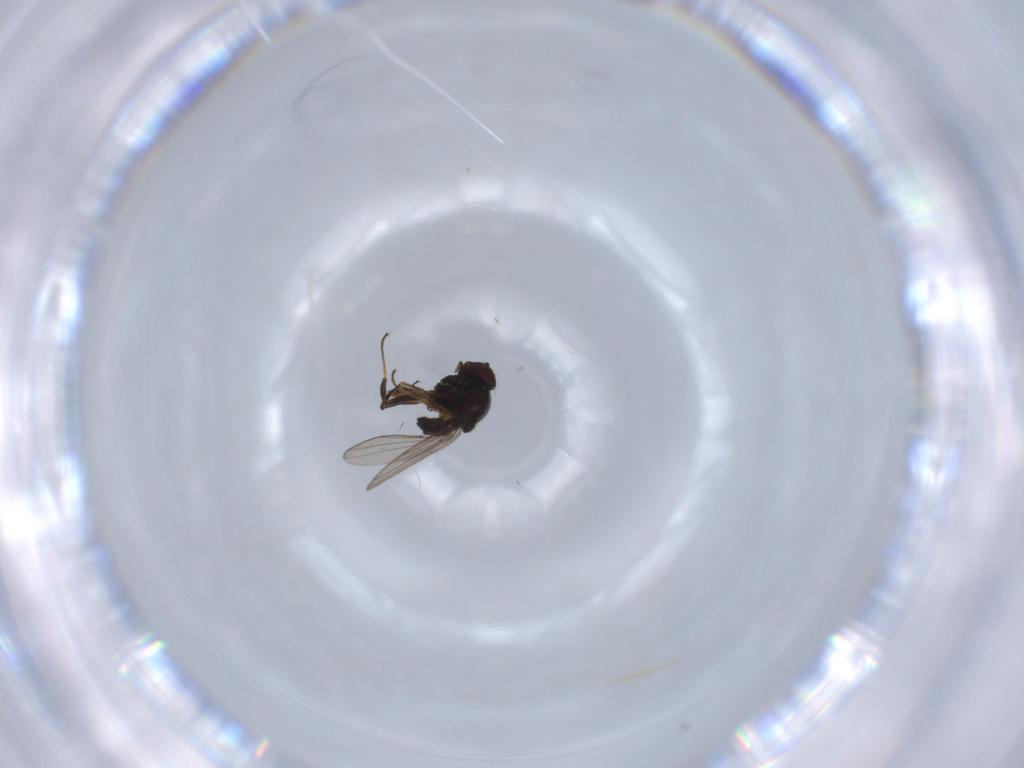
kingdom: Animalia
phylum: Arthropoda
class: Insecta
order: Diptera
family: Chloropidae
